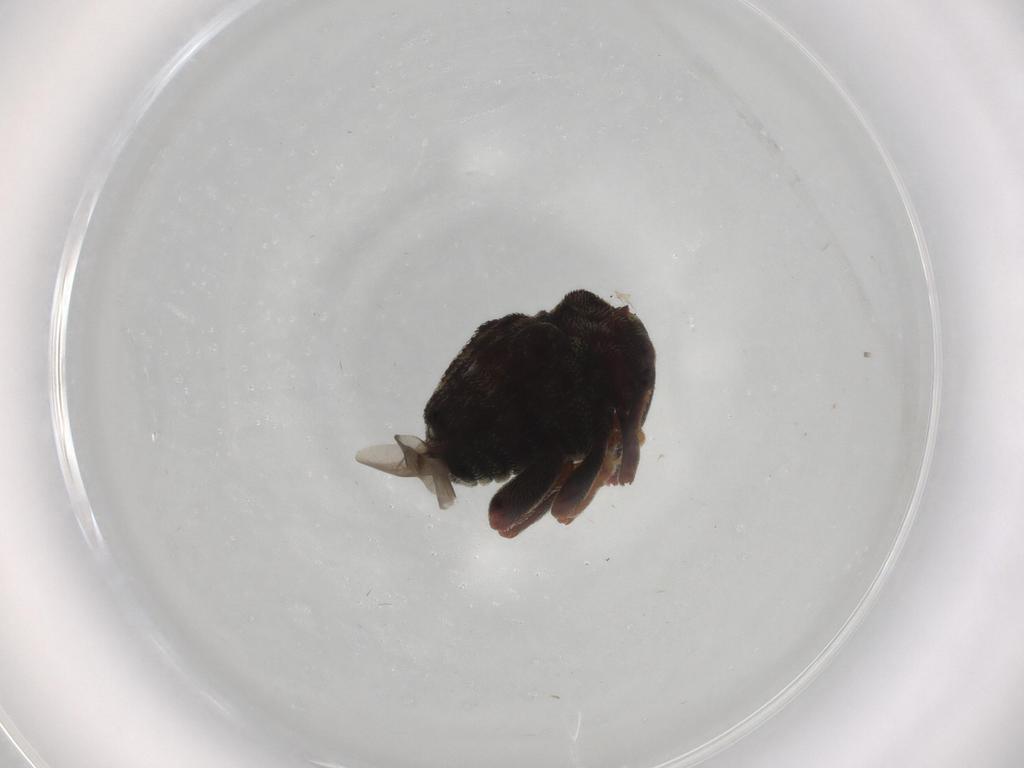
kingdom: Animalia
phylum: Arthropoda
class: Insecta
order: Coleoptera
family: Curculionidae
